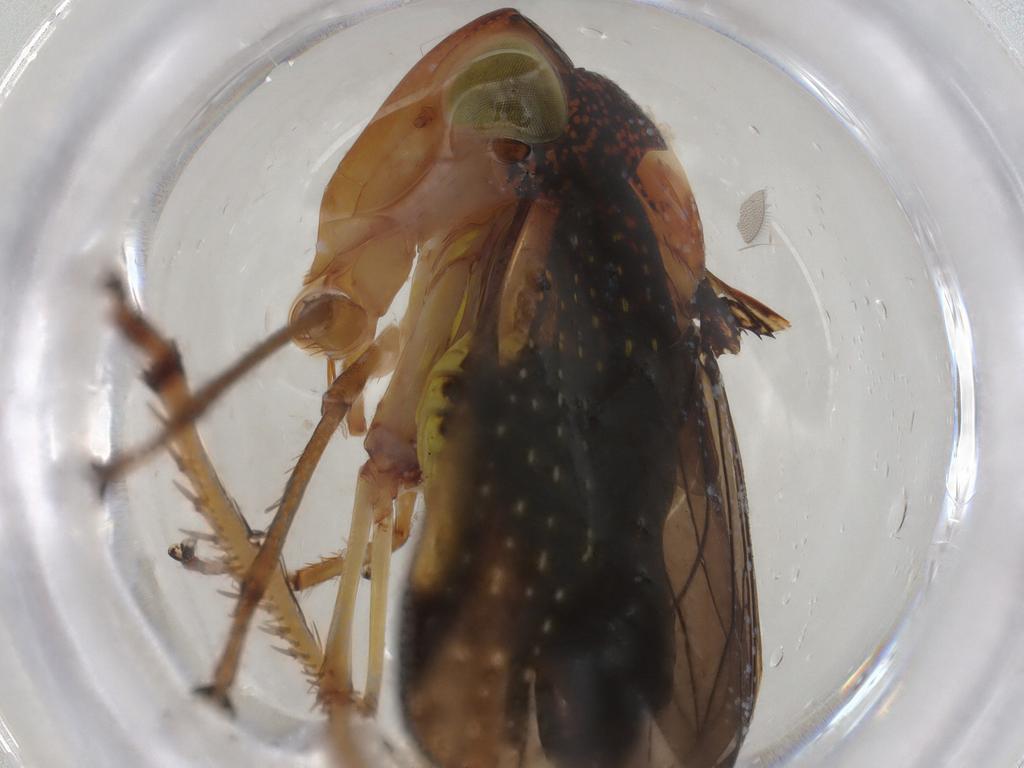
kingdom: Animalia
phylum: Arthropoda
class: Insecta
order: Hemiptera
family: Cicadellidae
